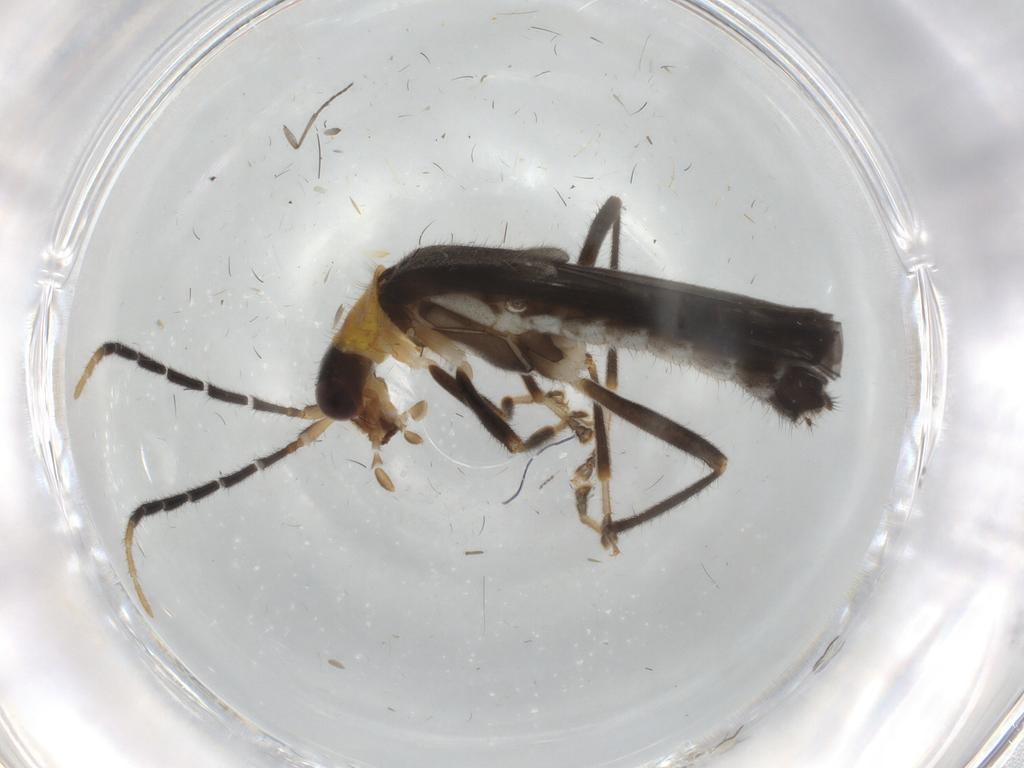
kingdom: Animalia
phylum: Arthropoda
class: Insecta
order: Coleoptera
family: Cantharidae
